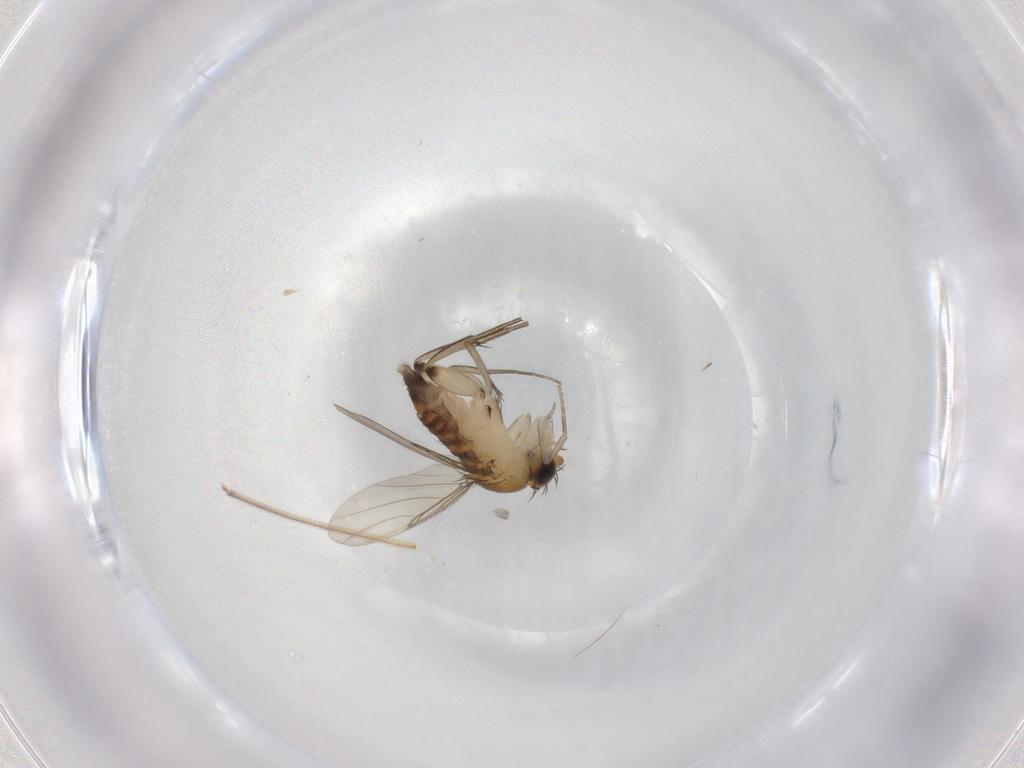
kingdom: Animalia
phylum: Arthropoda
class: Insecta
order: Diptera
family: Phoridae
